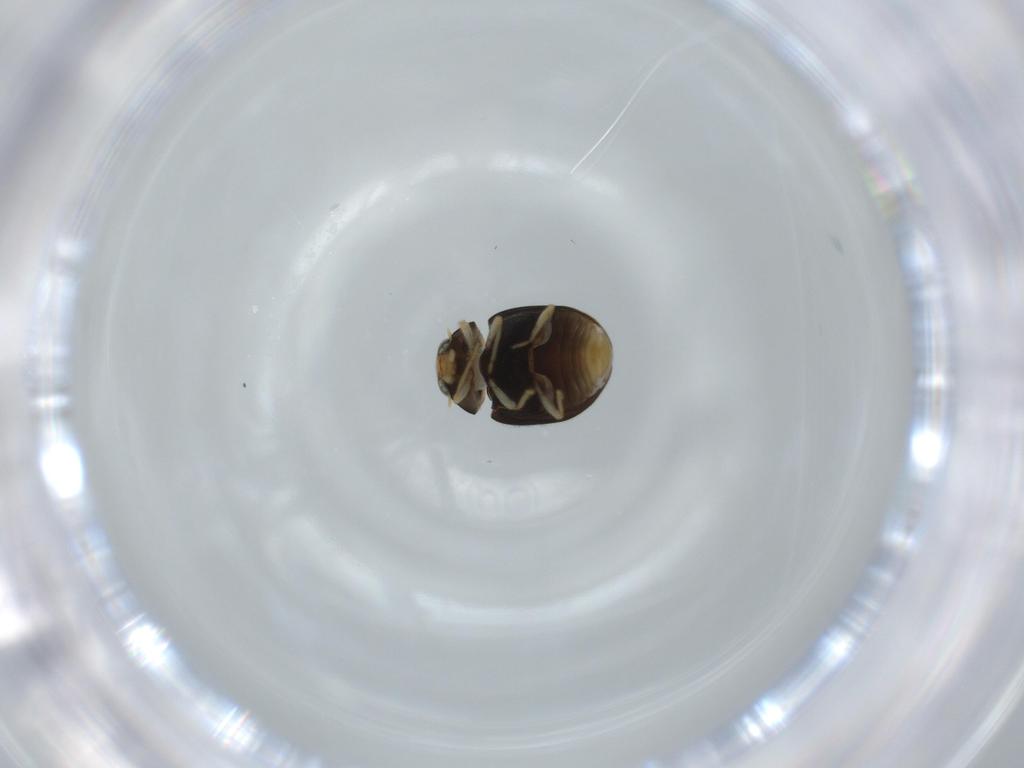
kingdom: Animalia
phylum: Arthropoda
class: Insecta
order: Coleoptera
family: Coccinellidae
